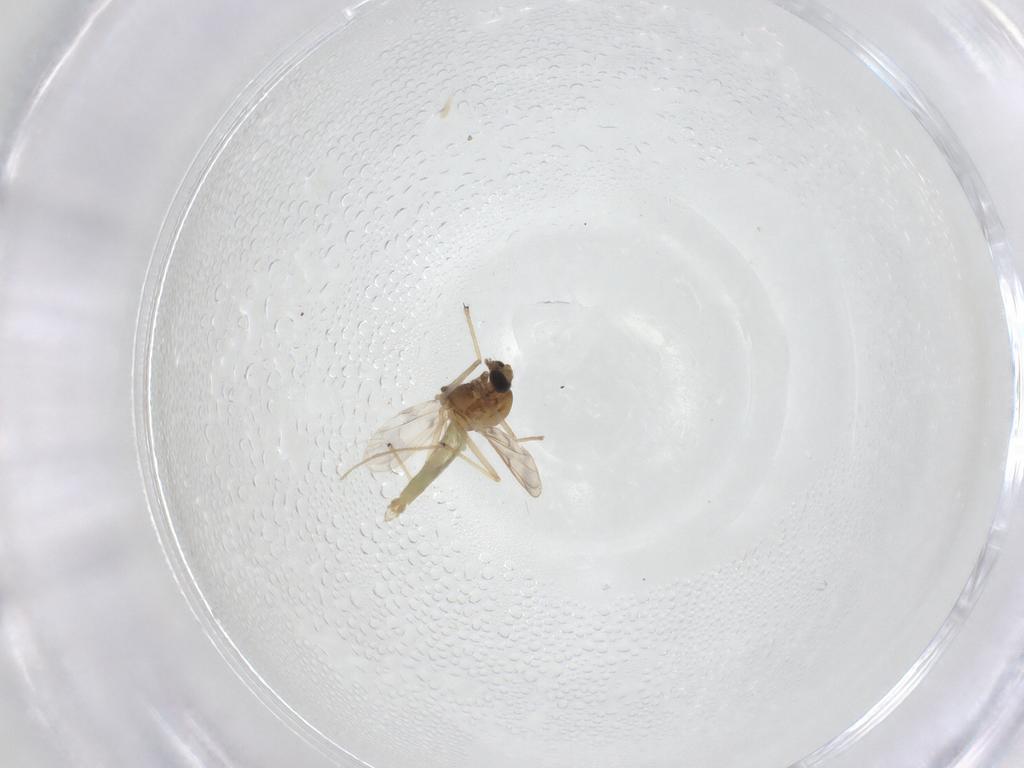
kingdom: Animalia
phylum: Arthropoda
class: Insecta
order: Diptera
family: Chironomidae
